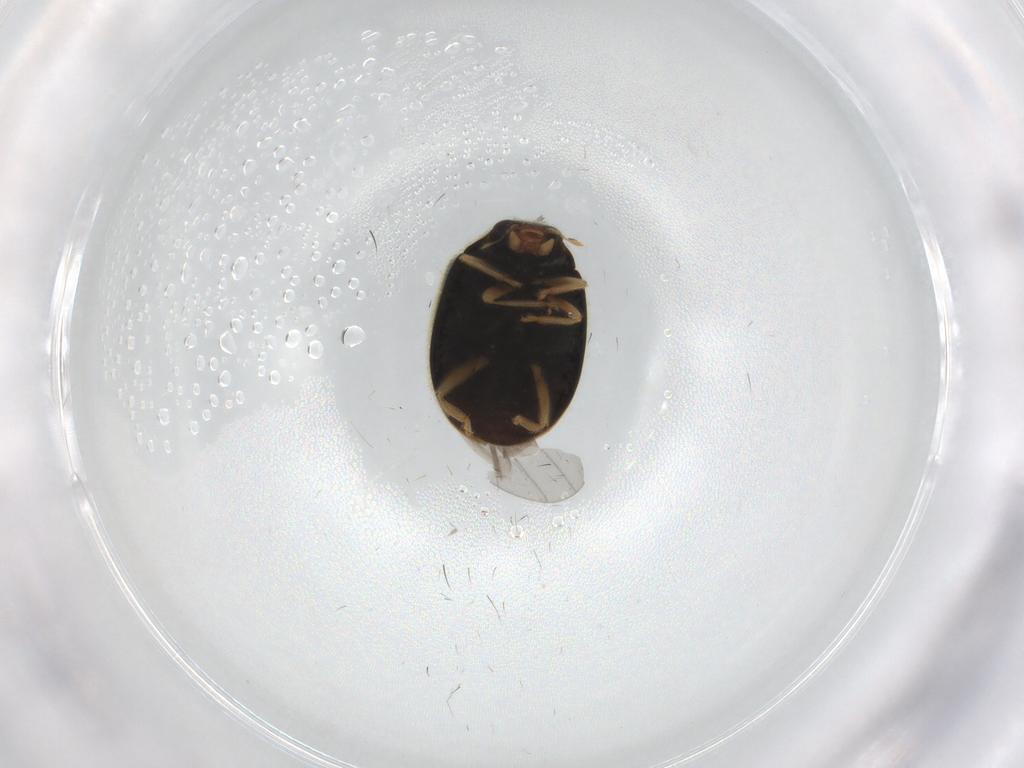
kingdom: Animalia
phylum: Arthropoda
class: Insecta
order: Coleoptera
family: Coccinellidae
